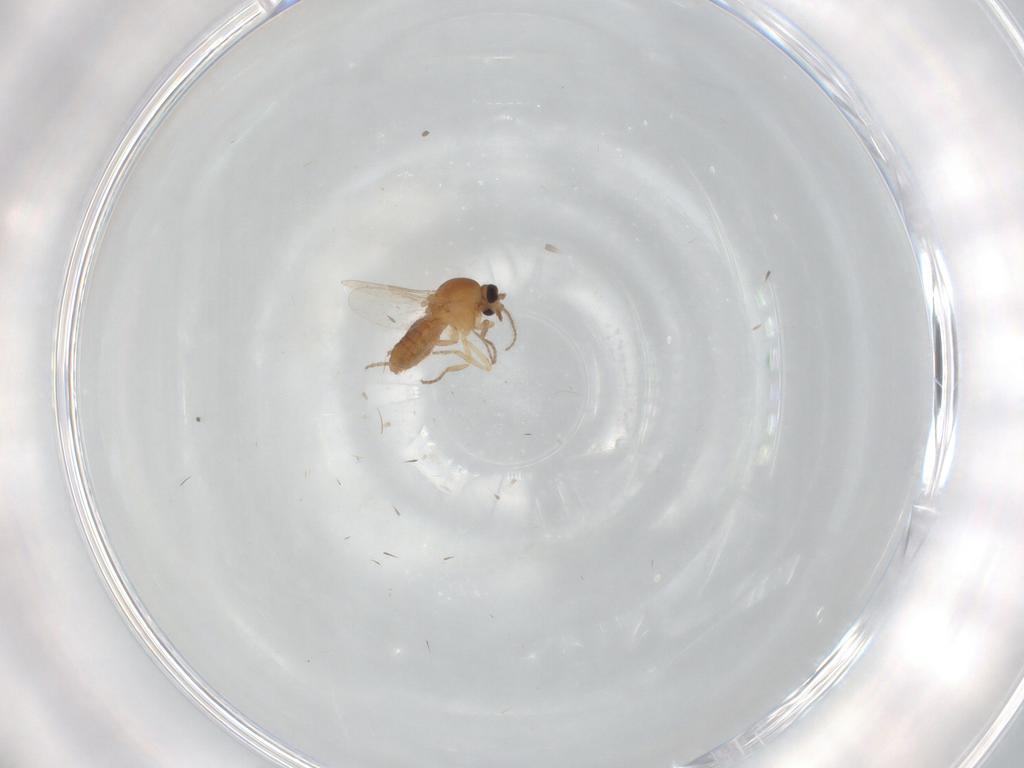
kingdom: Animalia
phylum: Arthropoda
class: Insecta
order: Diptera
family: Ceratopogonidae
